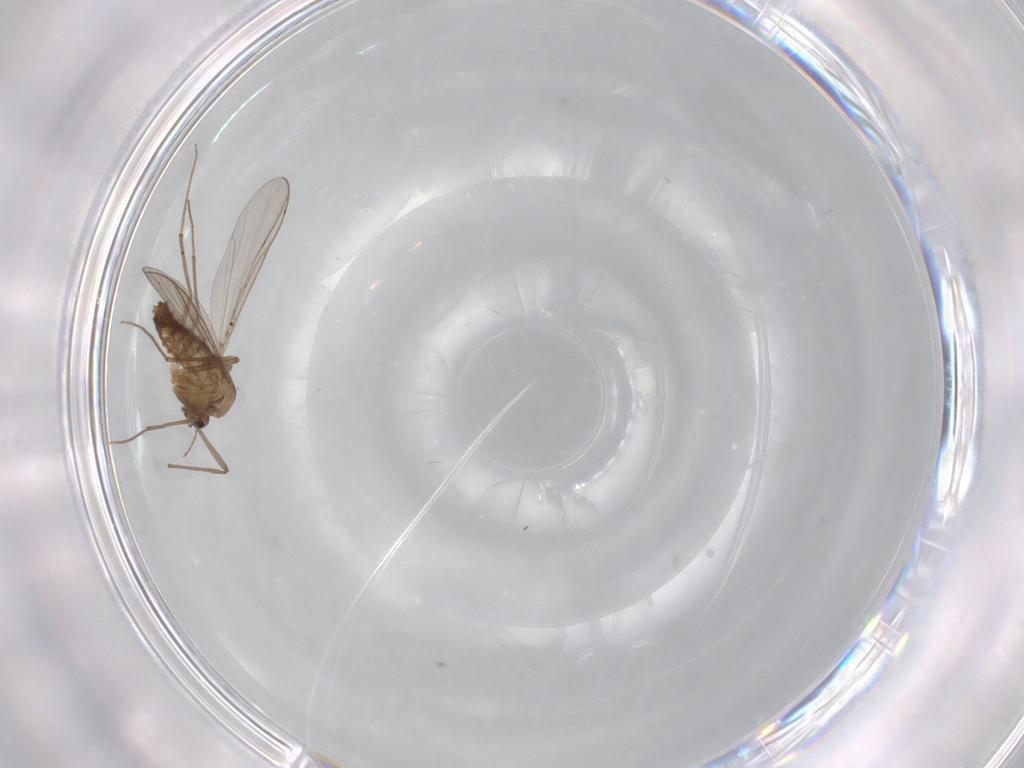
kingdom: Animalia
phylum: Arthropoda
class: Insecta
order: Diptera
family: Chironomidae
